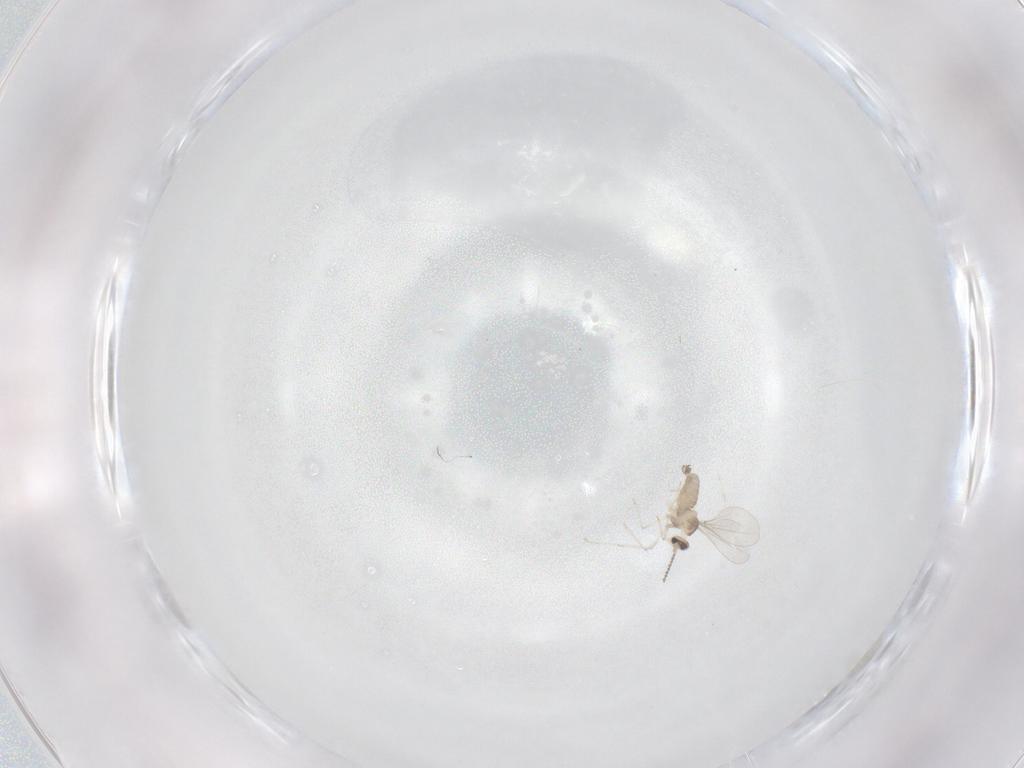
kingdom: Animalia
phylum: Arthropoda
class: Insecta
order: Diptera
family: Cecidomyiidae
